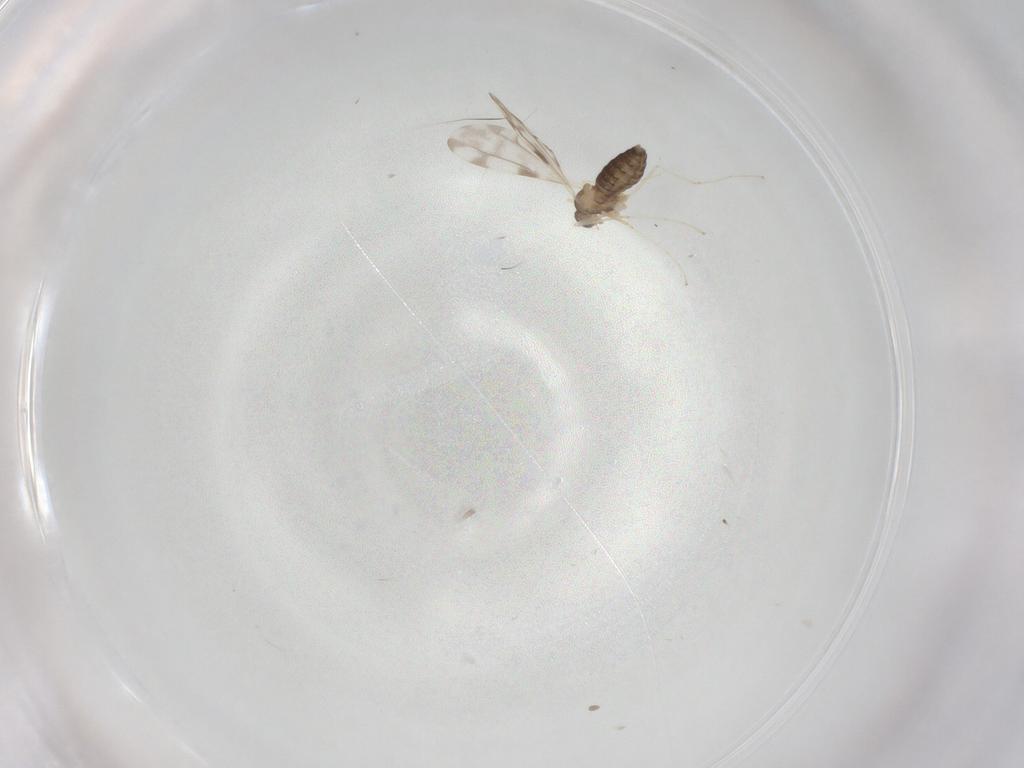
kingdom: Animalia
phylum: Arthropoda
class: Insecta
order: Diptera
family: Cecidomyiidae
